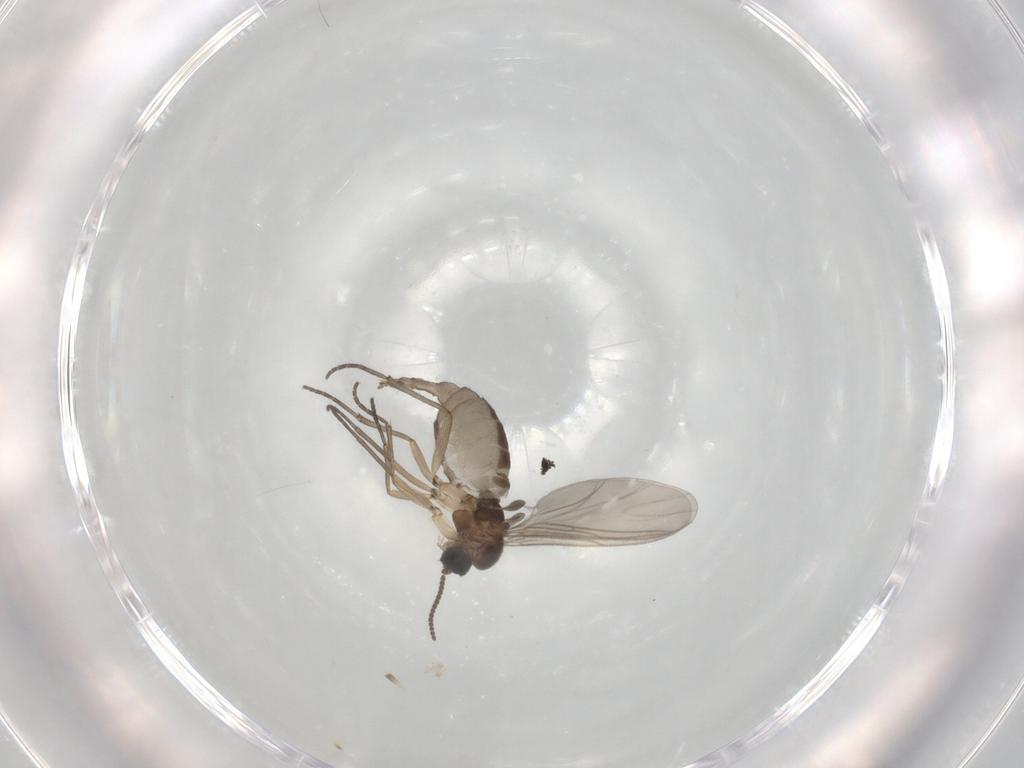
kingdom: Animalia
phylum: Arthropoda
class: Insecta
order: Diptera
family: Sciaridae
